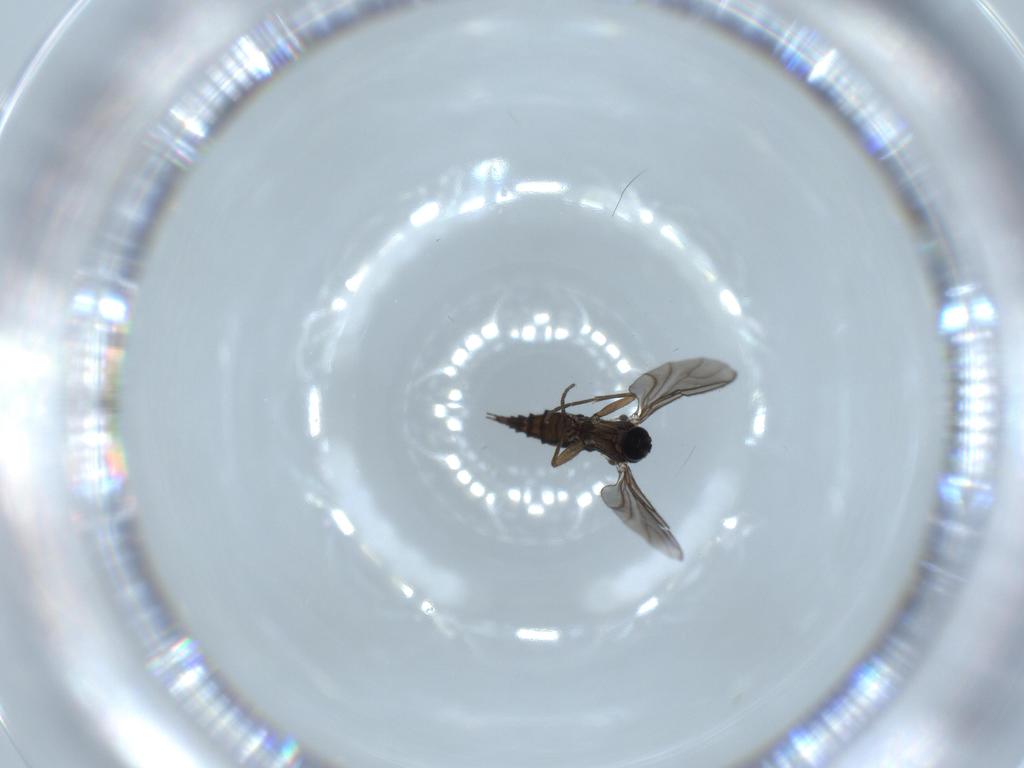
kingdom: Animalia
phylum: Arthropoda
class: Insecta
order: Diptera
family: Sciaridae
